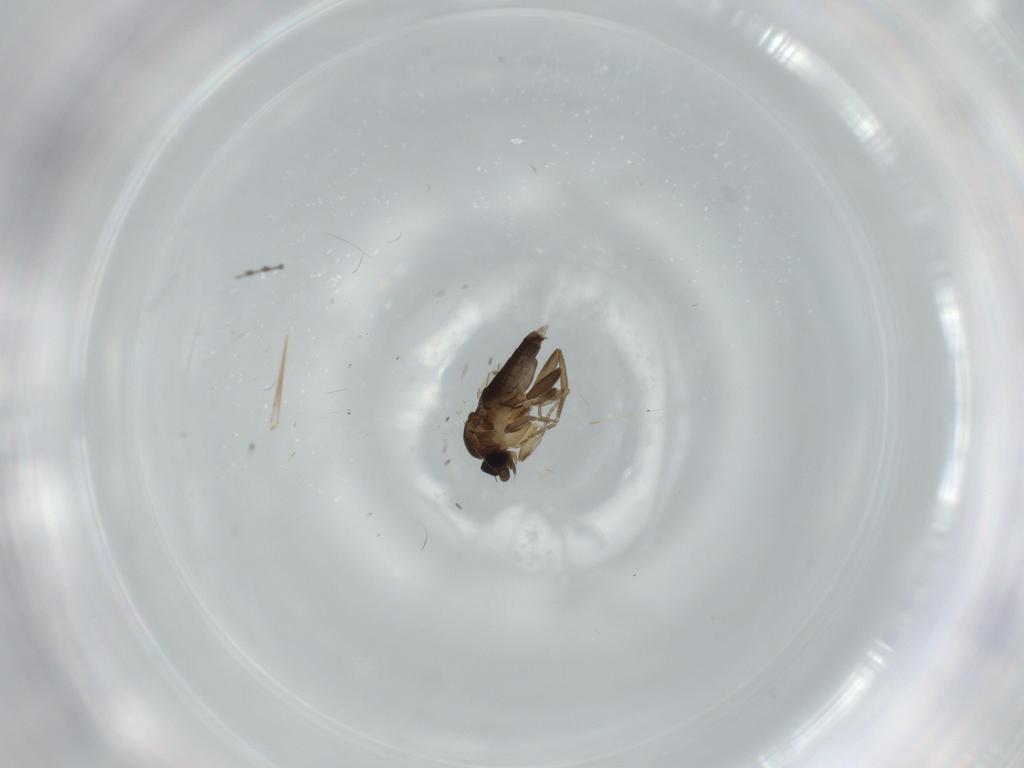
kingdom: Animalia
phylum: Arthropoda
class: Insecta
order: Diptera
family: Phoridae
